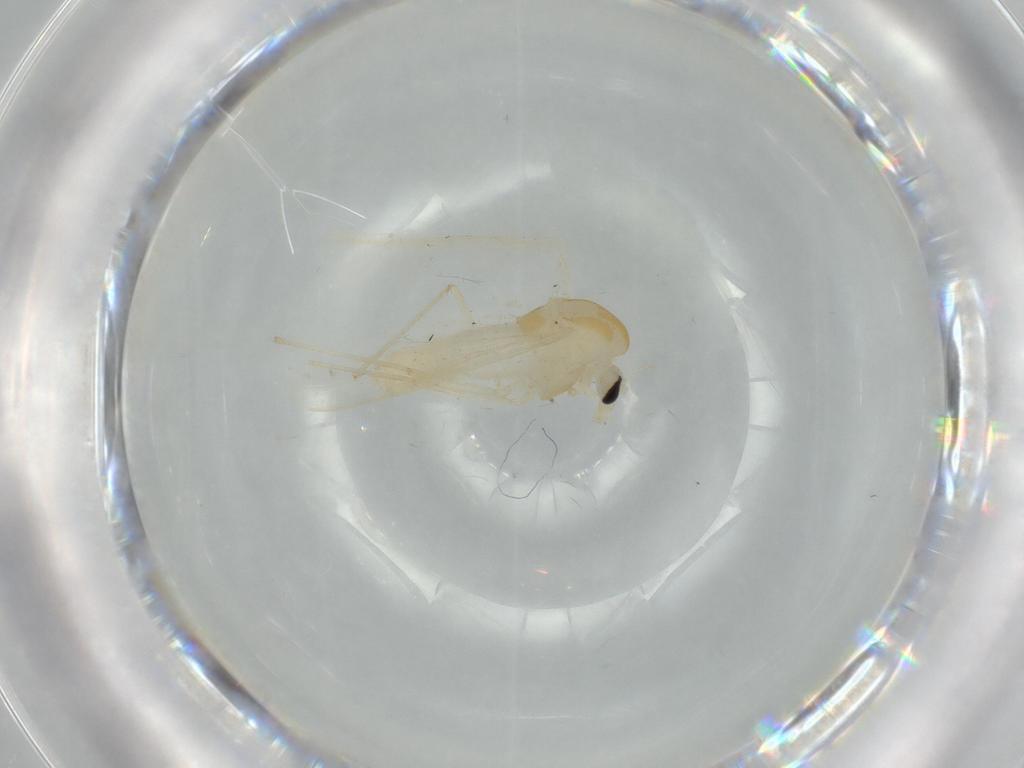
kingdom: Animalia
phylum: Arthropoda
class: Insecta
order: Diptera
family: Chironomidae
